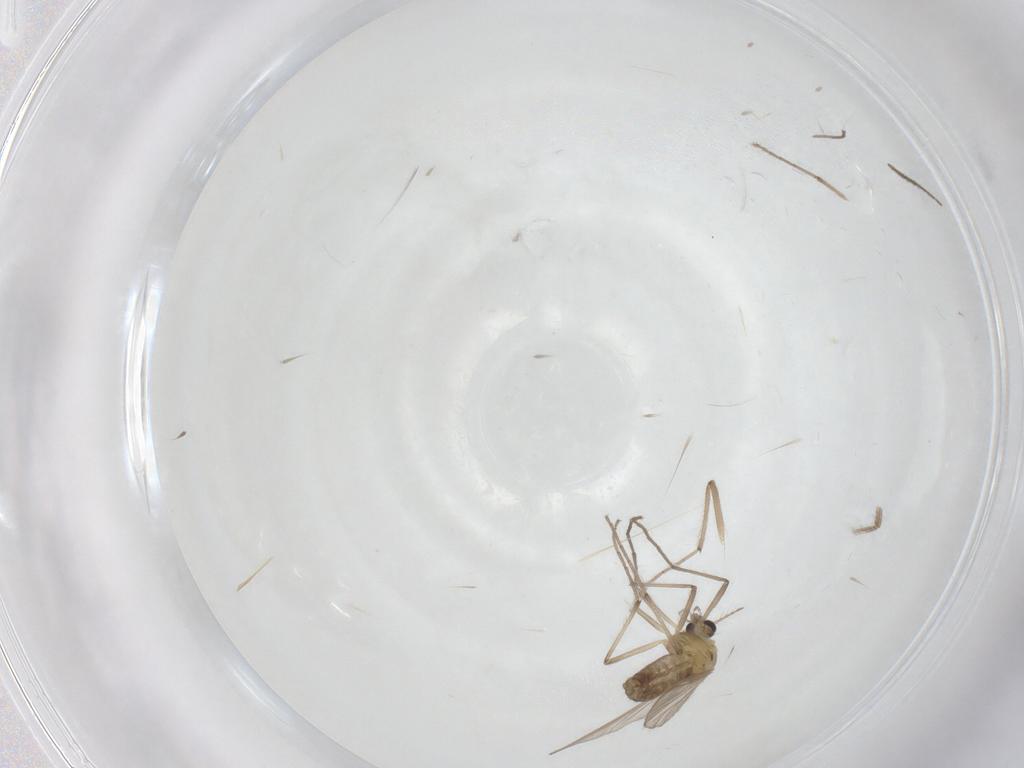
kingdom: Animalia
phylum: Arthropoda
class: Insecta
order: Diptera
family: Chironomidae
